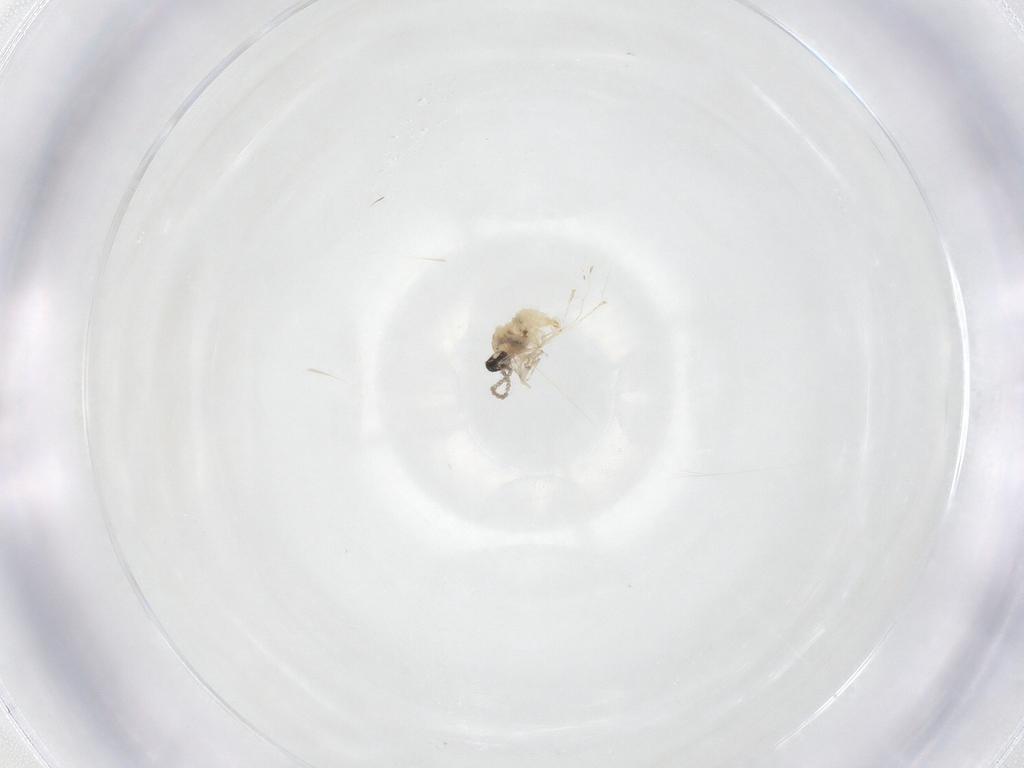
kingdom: Animalia
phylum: Arthropoda
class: Insecta
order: Diptera
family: Cecidomyiidae
